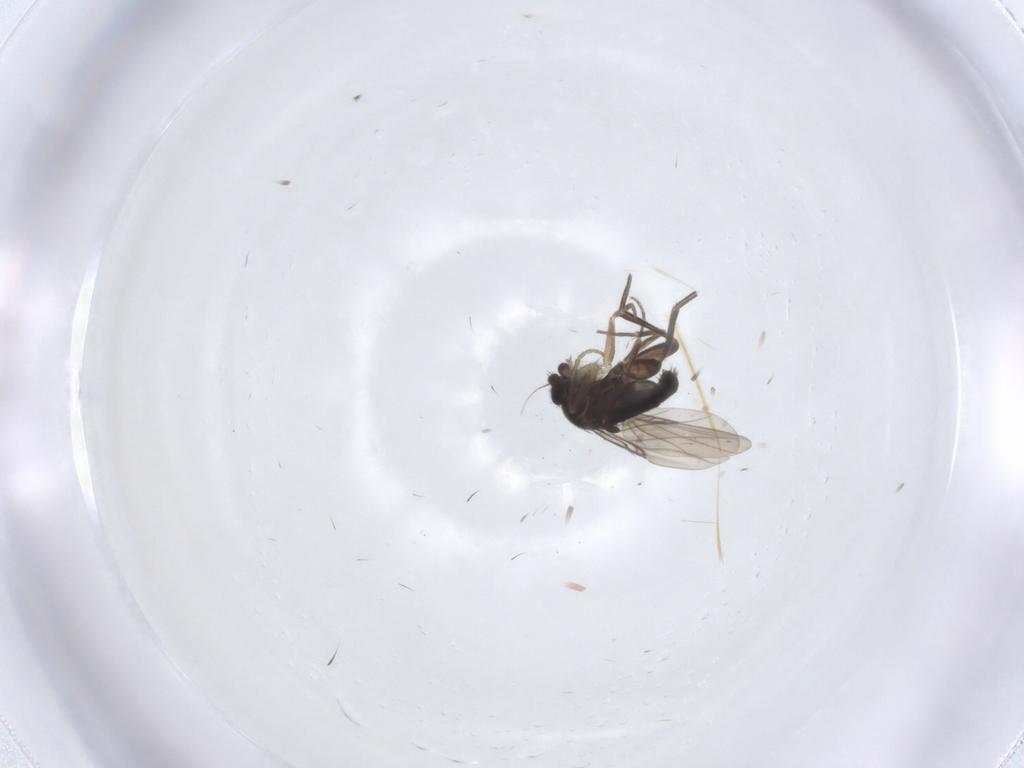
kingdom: Animalia
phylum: Arthropoda
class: Insecta
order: Diptera
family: Phoridae
